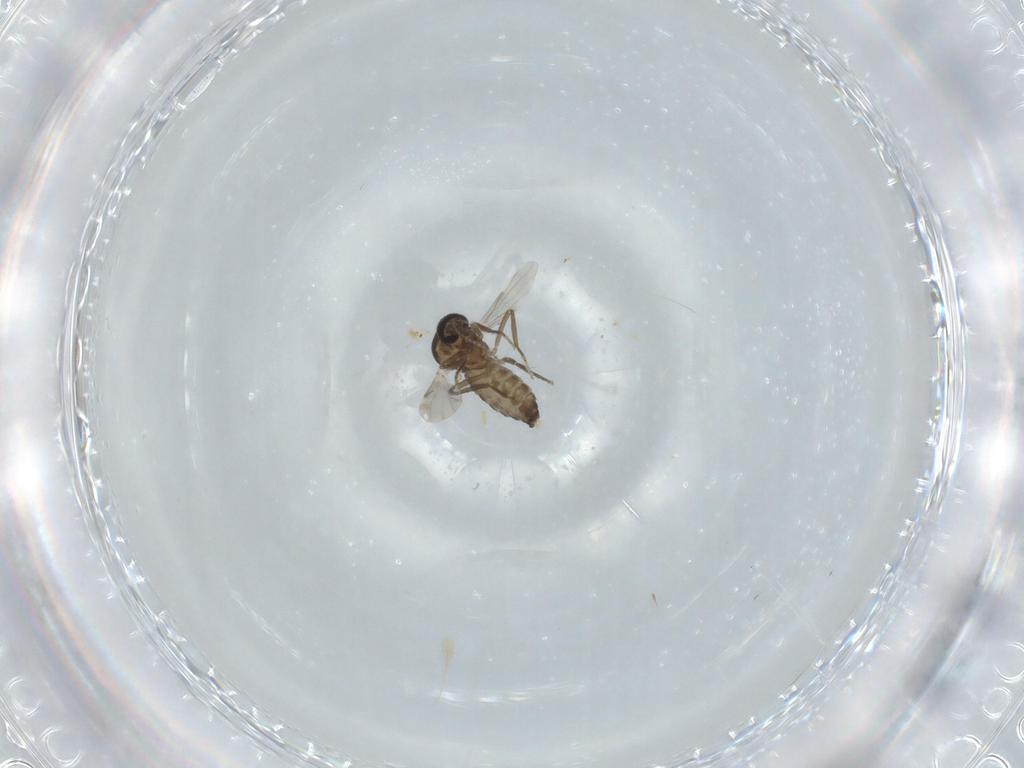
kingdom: Animalia
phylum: Arthropoda
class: Insecta
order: Diptera
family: Ceratopogonidae
